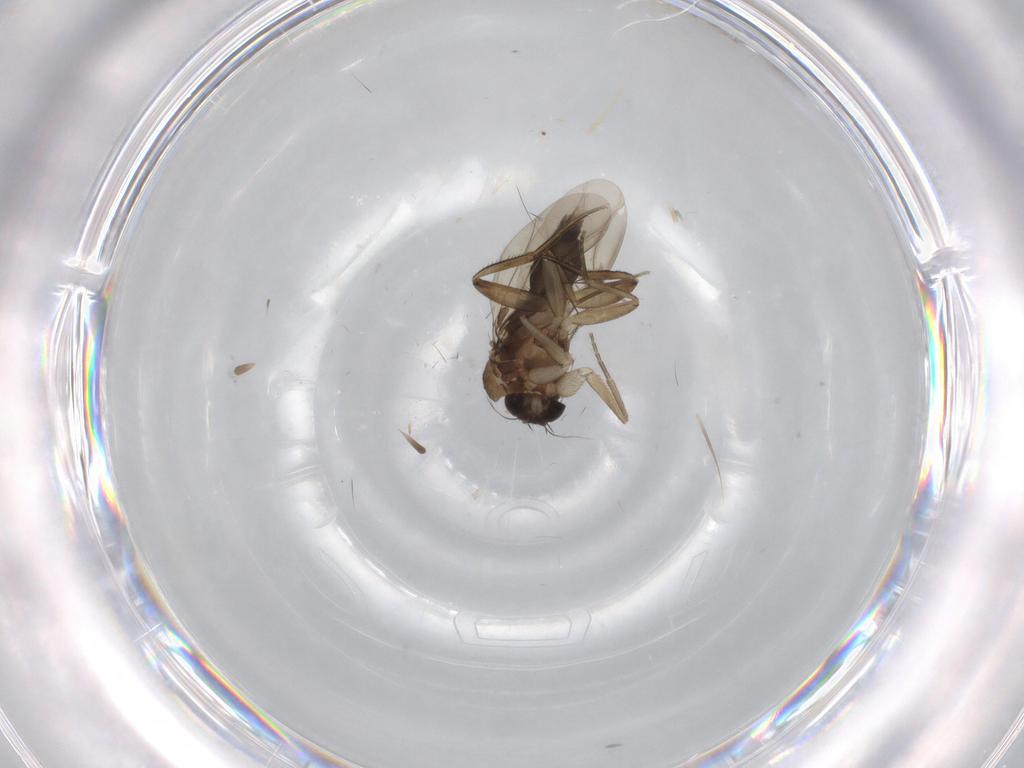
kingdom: Animalia
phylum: Arthropoda
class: Insecta
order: Diptera
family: Phoridae
